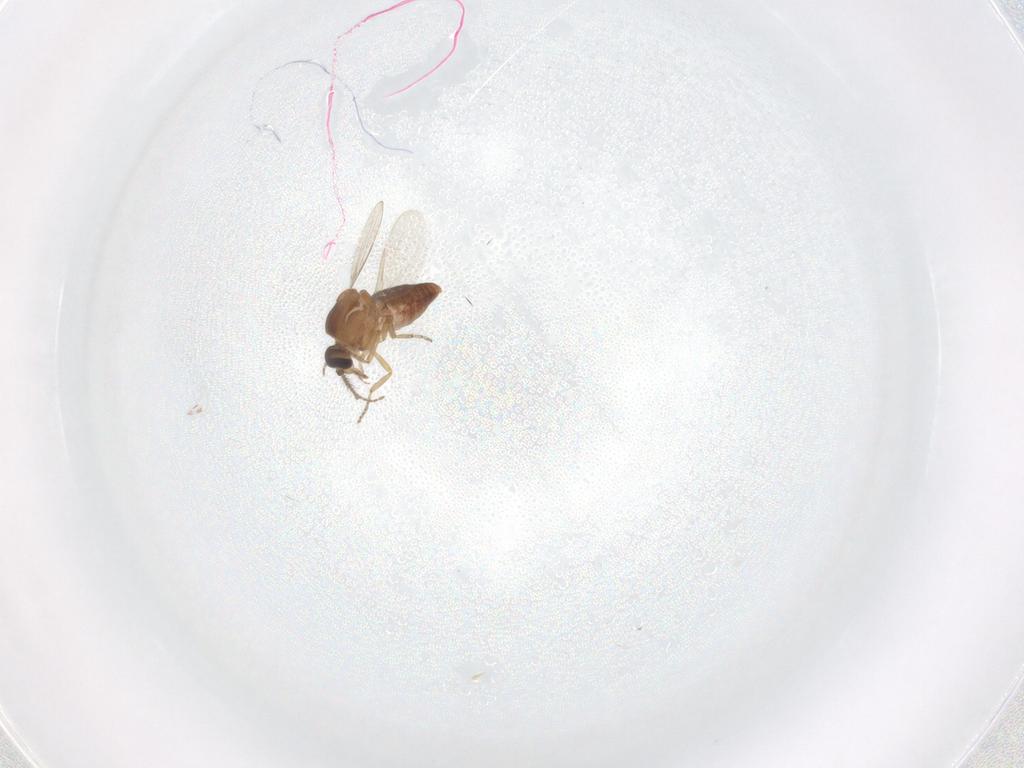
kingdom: Animalia
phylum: Arthropoda
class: Insecta
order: Diptera
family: Ceratopogonidae
